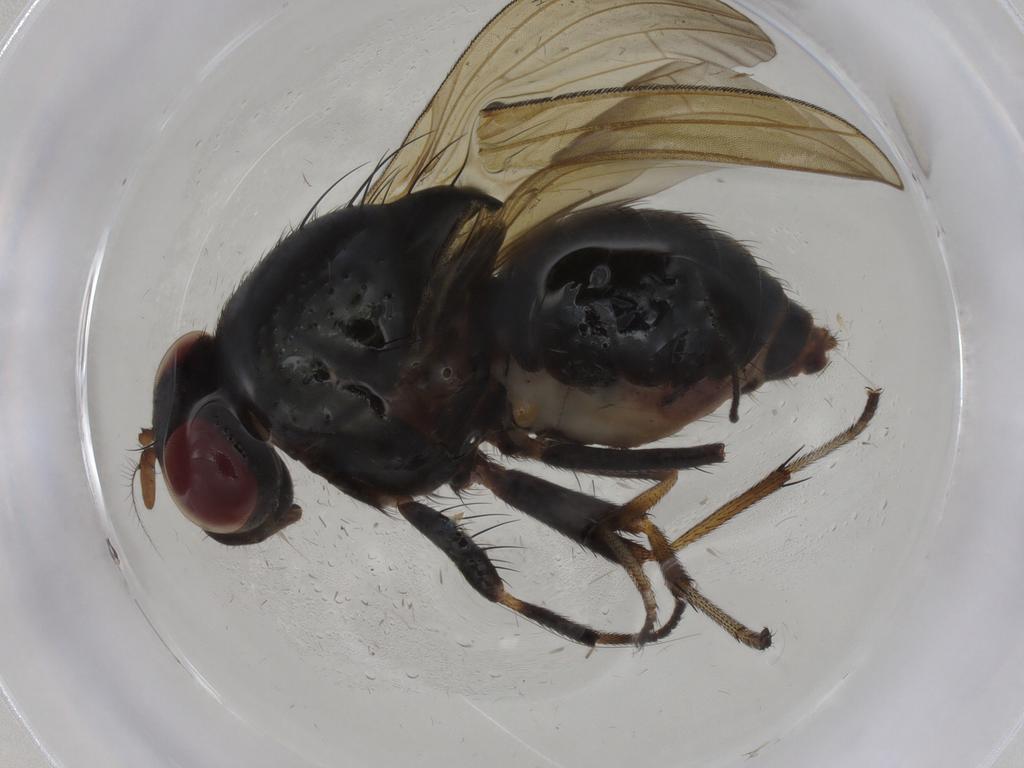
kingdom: Animalia
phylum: Arthropoda
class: Insecta
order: Diptera
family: Lauxaniidae
